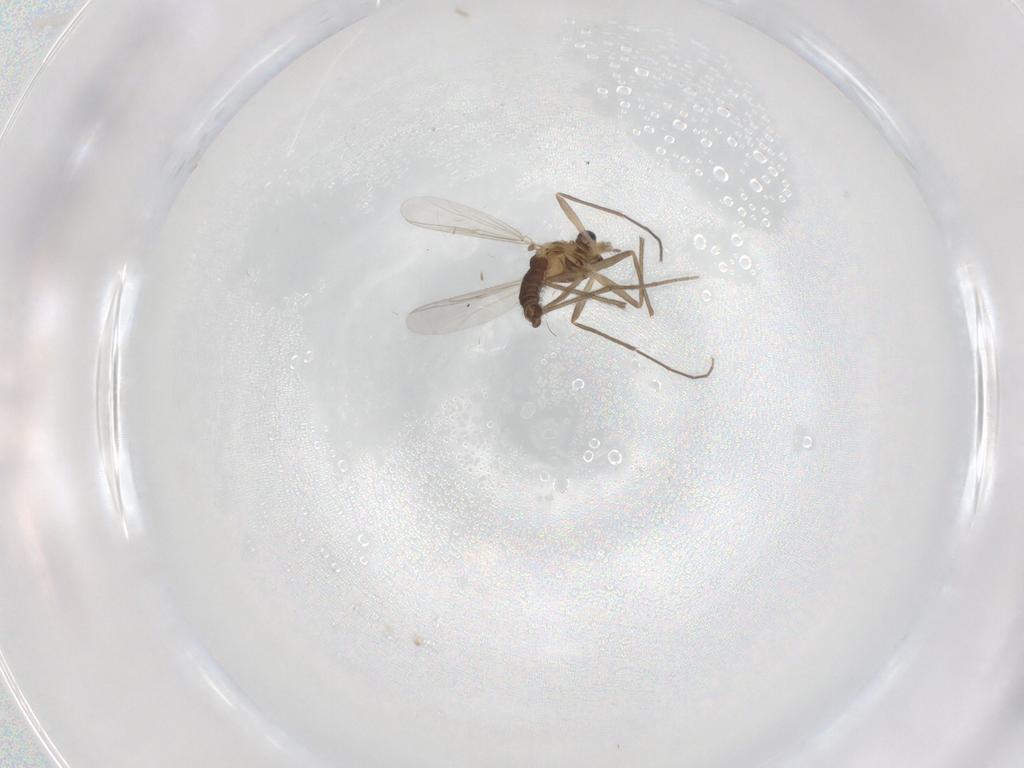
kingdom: Animalia
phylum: Arthropoda
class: Insecta
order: Diptera
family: Chironomidae
